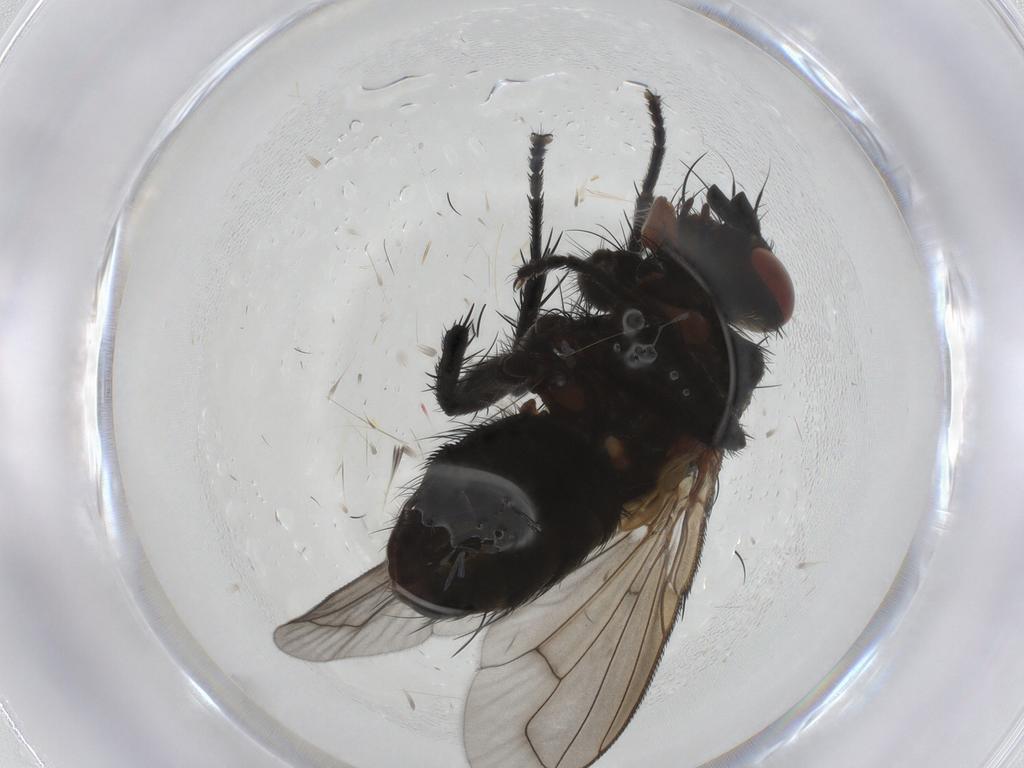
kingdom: Animalia
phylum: Arthropoda
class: Insecta
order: Diptera
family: Tachinidae
